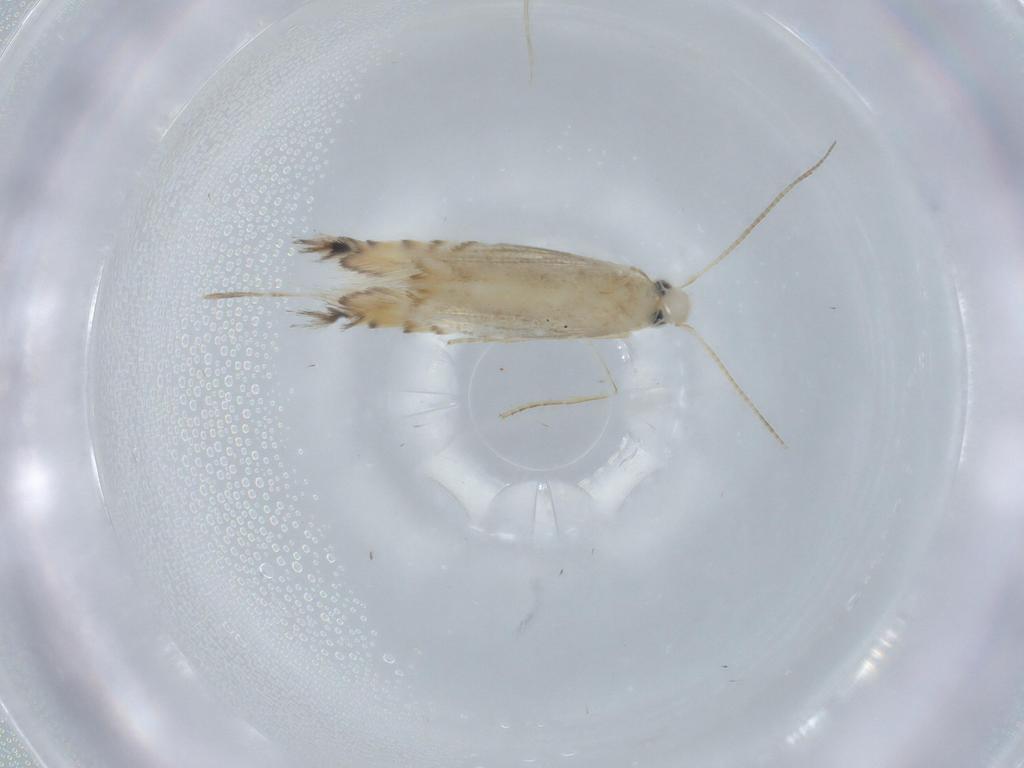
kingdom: Animalia
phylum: Arthropoda
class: Insecta
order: Lepidoptera
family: Gracillariidae
